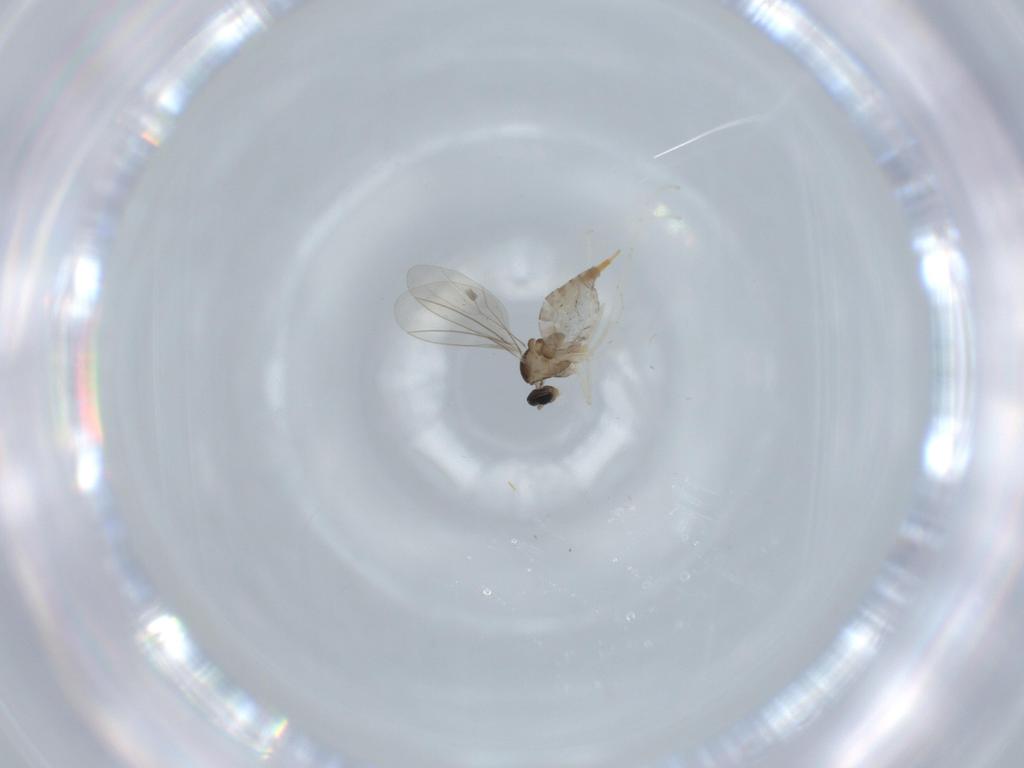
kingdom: Animalia
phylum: Arthropoda
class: Insecta
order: Diptera
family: Cecidomyiidae
